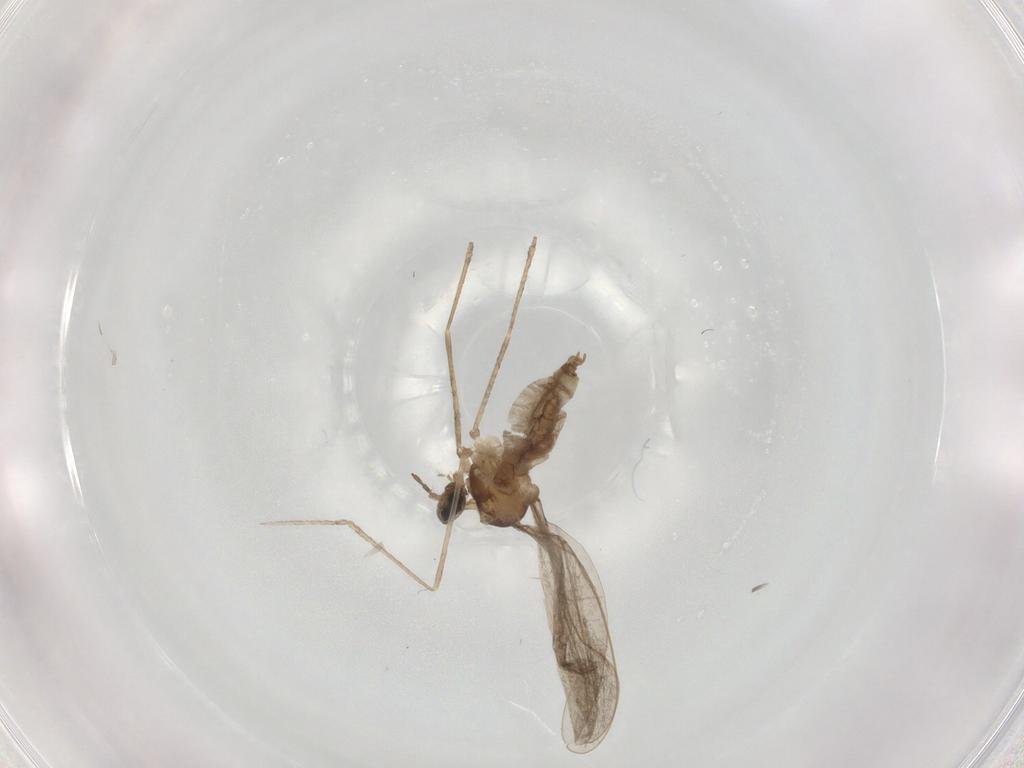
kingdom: Animalia
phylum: Arthropoda
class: Insecta
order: Diptera
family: Cecidomyiidae
